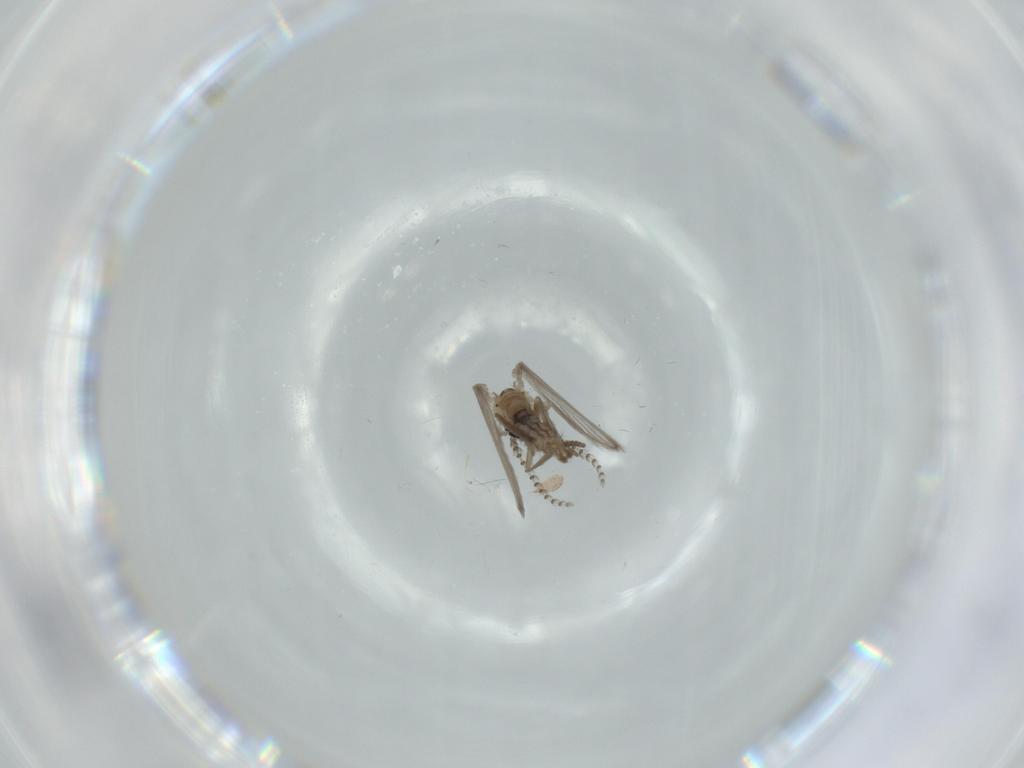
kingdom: Animalia
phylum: Arthropoda
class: Insecta
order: Diptera
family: Psychodidae
